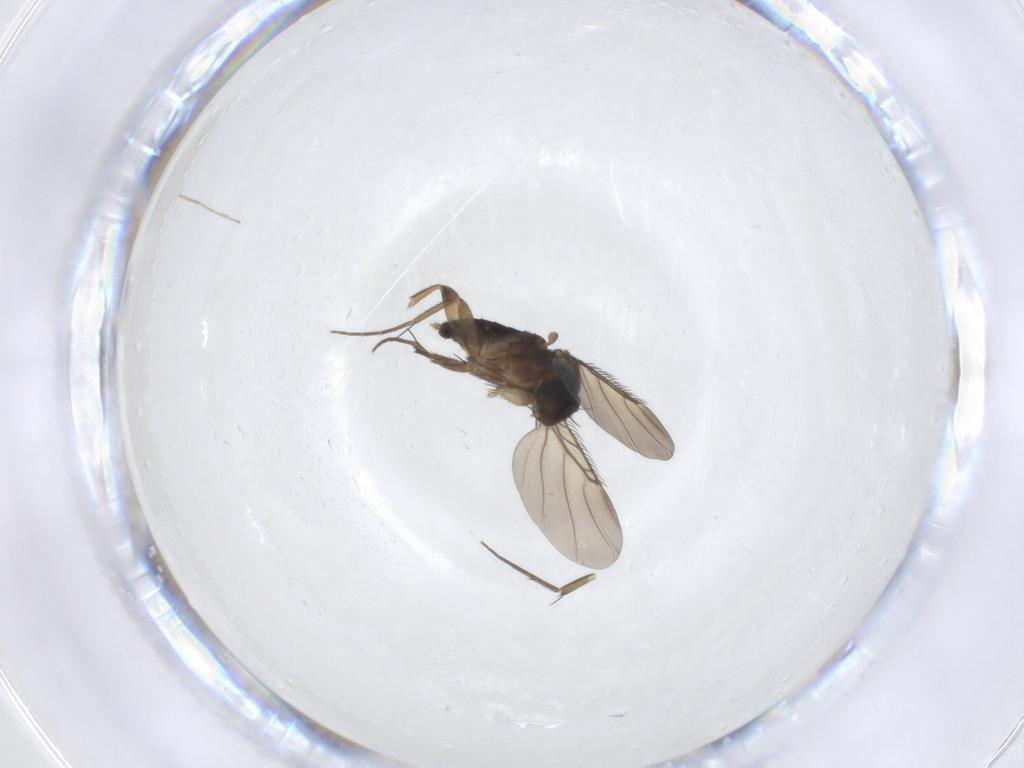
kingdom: Animalia
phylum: Arthropoda
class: Insecta
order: Diptera
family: Phoridae
